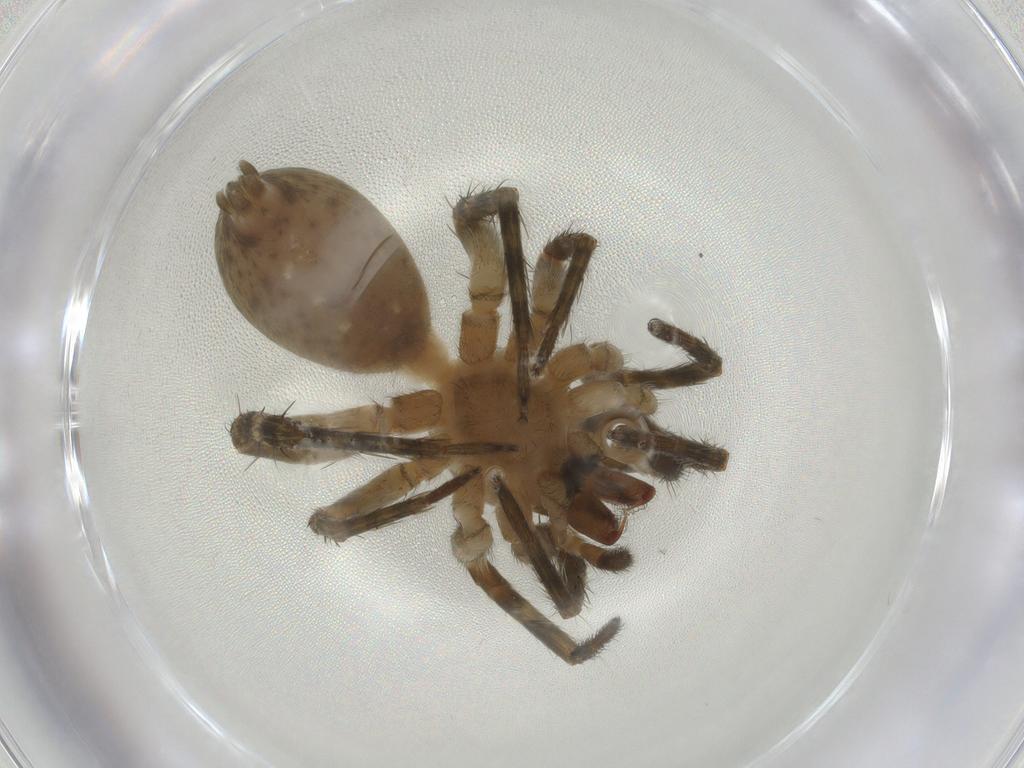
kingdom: Animalia
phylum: Arthropoda
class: Arachnida
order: Araneae
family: Anyphaenidae
